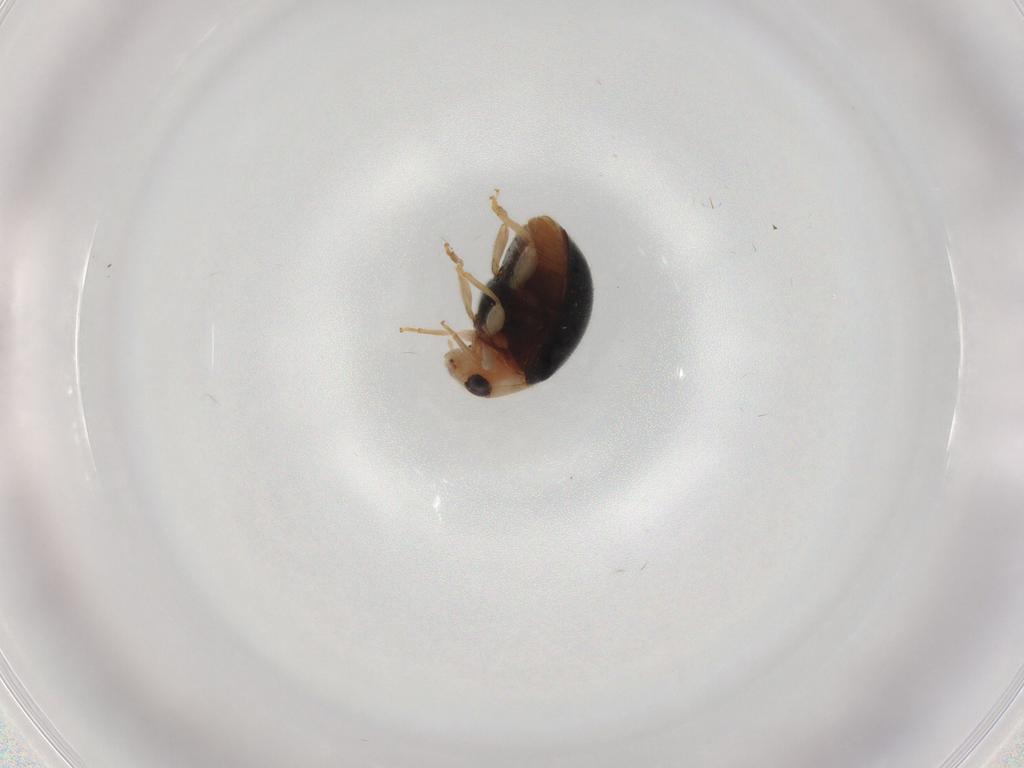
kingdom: Animalia
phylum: Arthropoda
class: Insecta
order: Coleoptera
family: Coccinellidae
